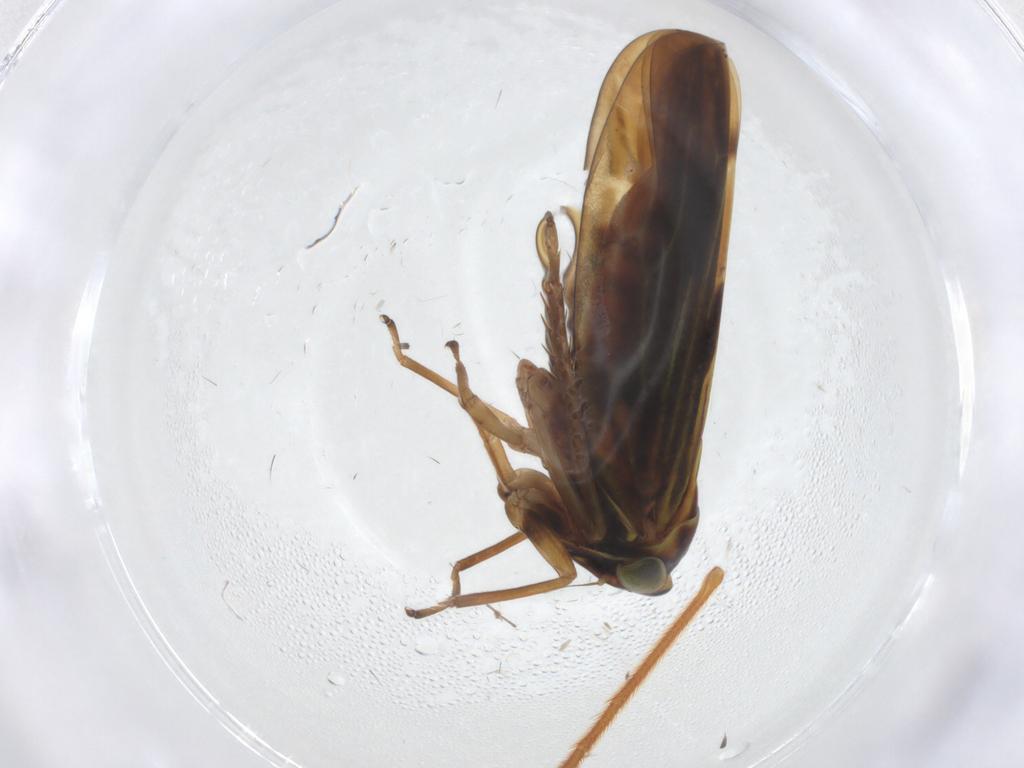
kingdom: Animalia
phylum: Arthropoda
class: Insecta
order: Hemiptera
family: Cicadellidae
